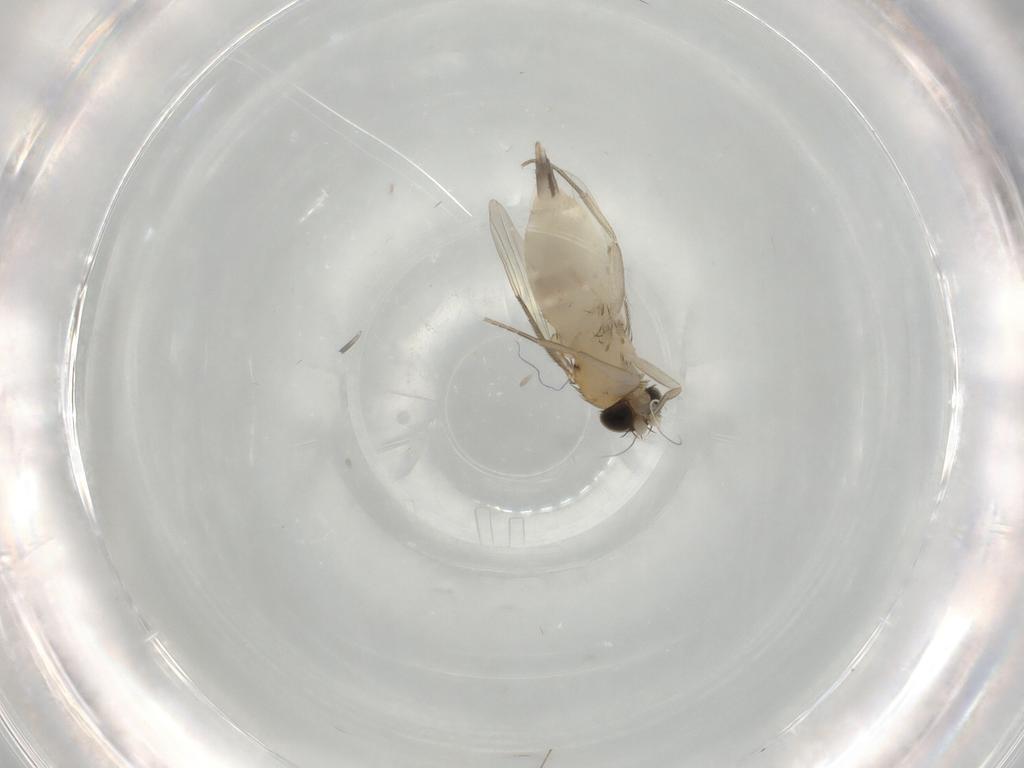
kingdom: Animalia
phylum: Arthropoda
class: Insecta
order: Diptera
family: Phoridae
